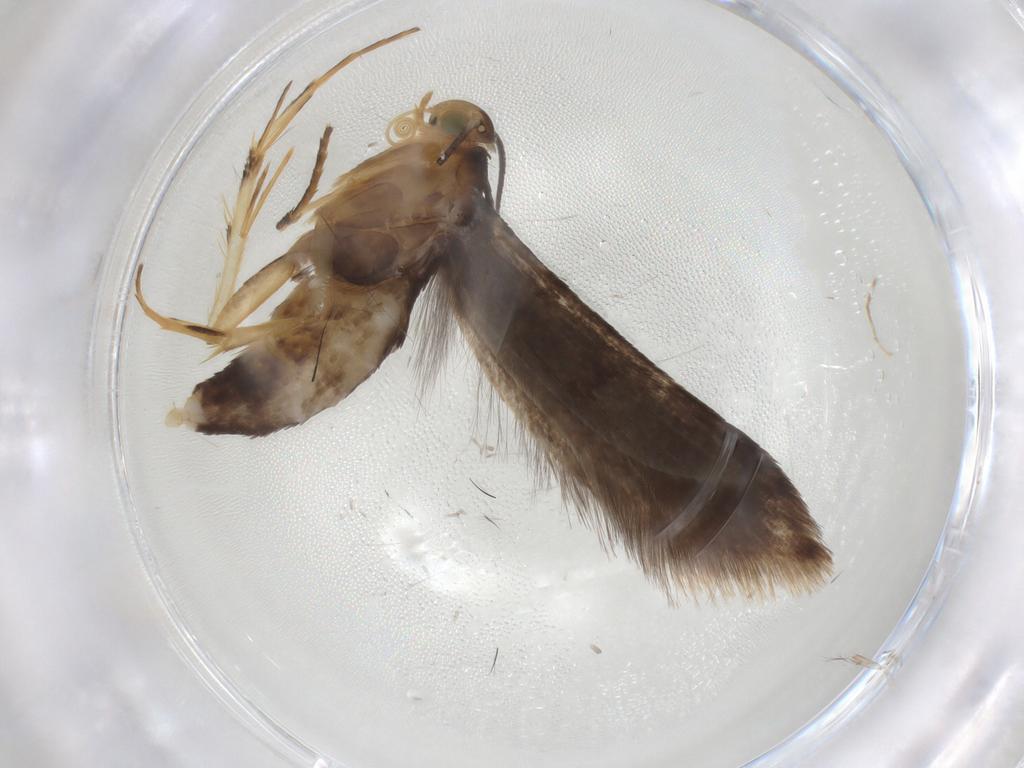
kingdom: Animalia
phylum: Arthropoda
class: Insecta
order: Lepidoptera
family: Oecophoridae
